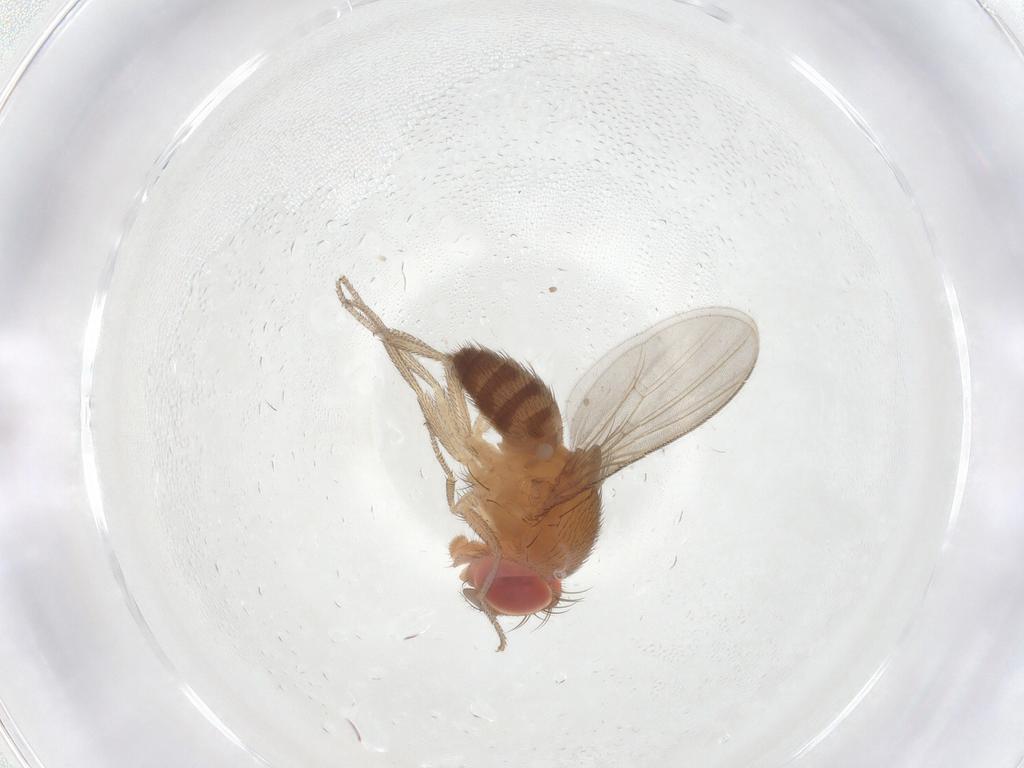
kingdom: Animalia
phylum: Arthropoda
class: Insecta
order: Diptera
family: Drosophilidae
